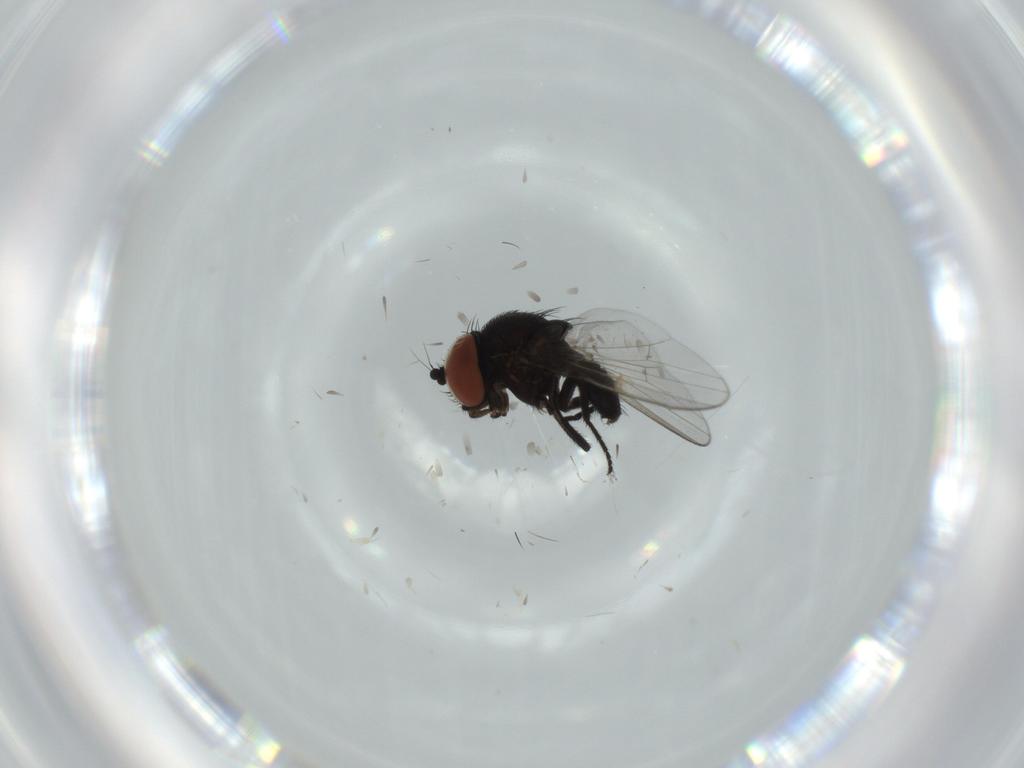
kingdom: Animalia
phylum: Arthropoda
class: Insecta
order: Diptera
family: Milichiidae
